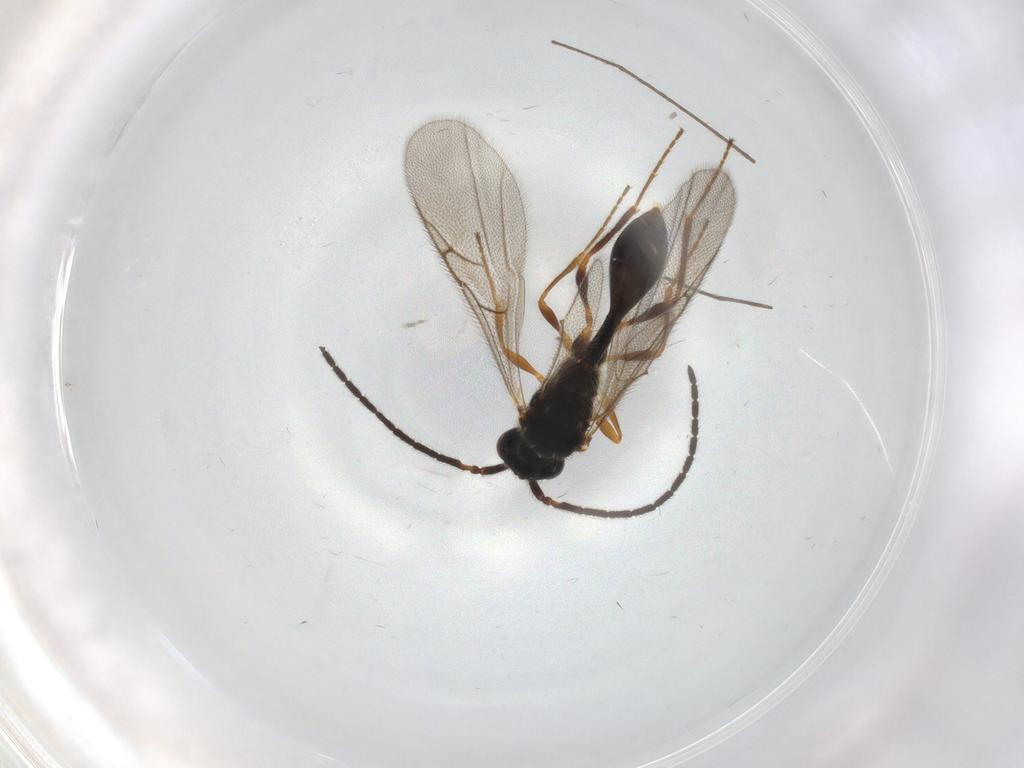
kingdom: Animalia
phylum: Arthropoda
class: Insecta
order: Hymenoptera
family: Diapriidae
